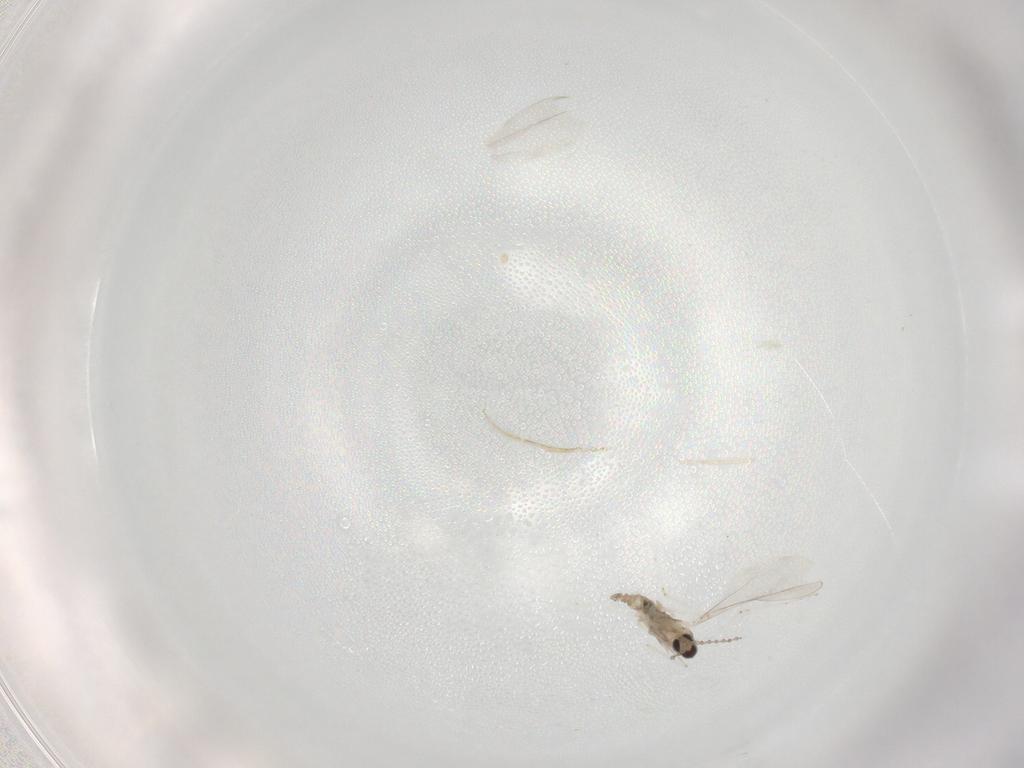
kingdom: Animalia
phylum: Arthropoda
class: Insecta
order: Diptera
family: Cecidomyiidae
